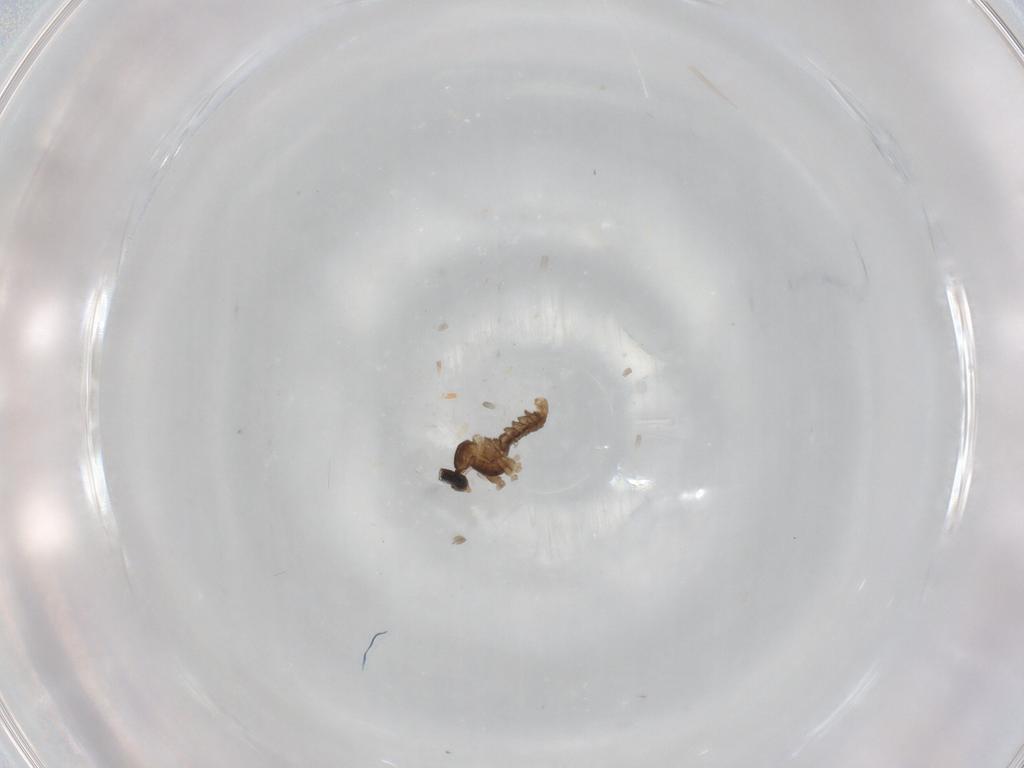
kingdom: Animalia
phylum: Arthropoda
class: Insecta
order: Diptera
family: Cecidomyiidae
